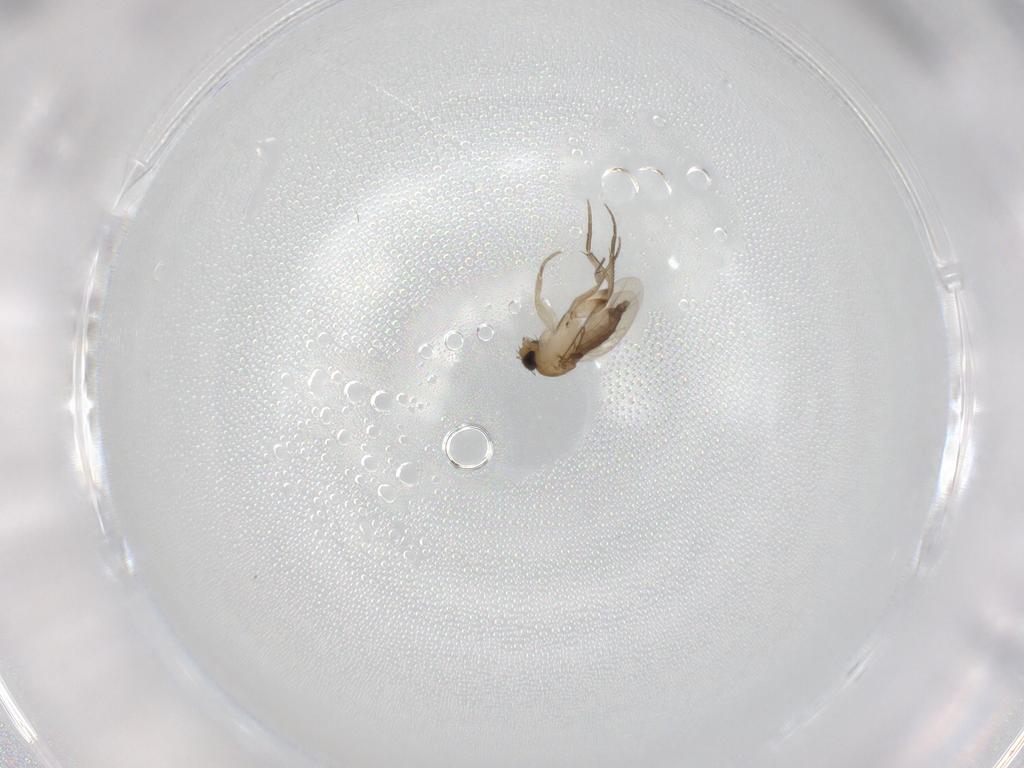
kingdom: Animalia
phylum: Arthropoda
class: Insecta
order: Diptera
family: Phoridae
